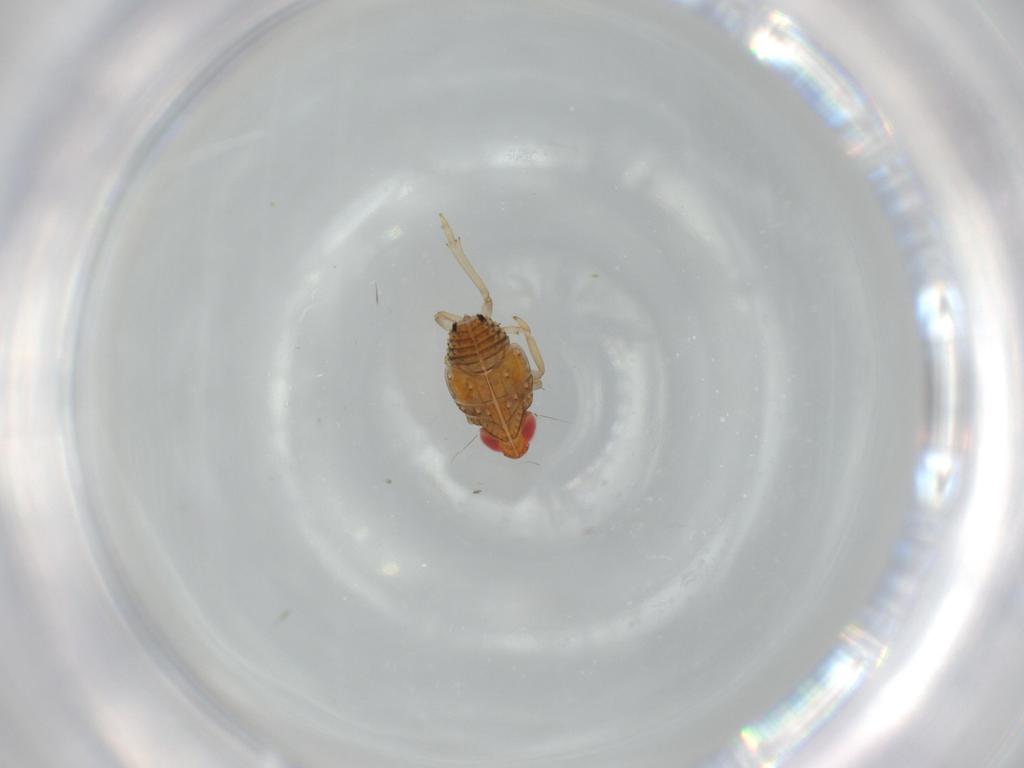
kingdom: Animalia
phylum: Arthropoda
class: Insecta
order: Hemiptera
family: Fulgoroidea_incertae_sedis
